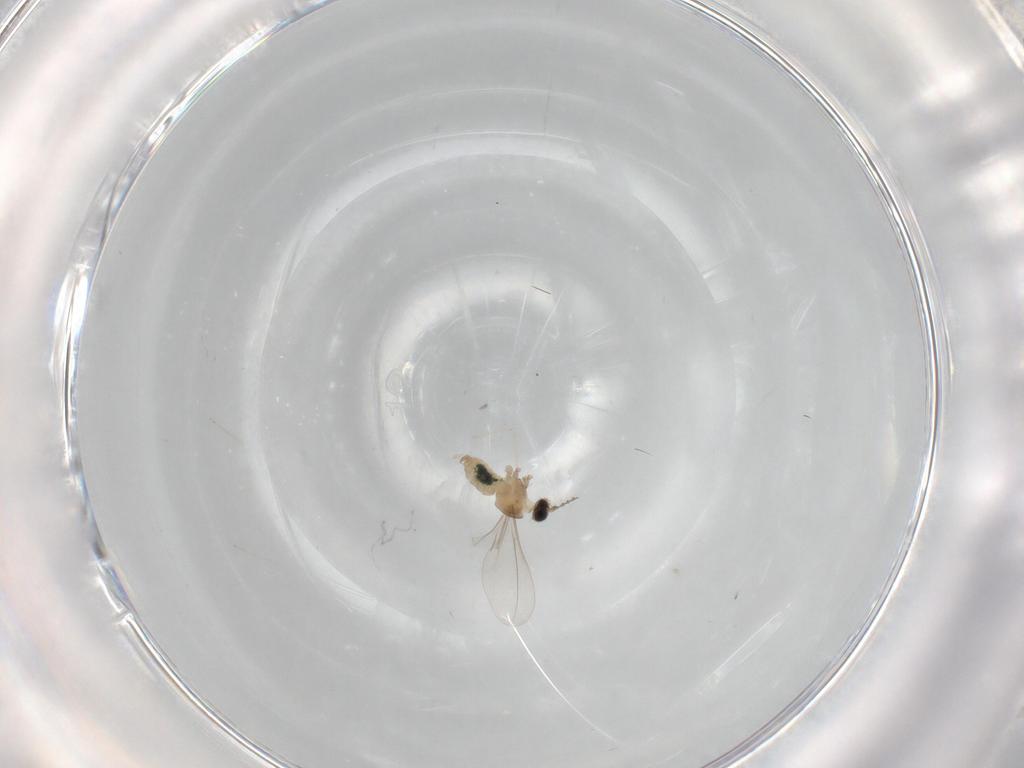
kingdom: Animalia
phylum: Arthropoda
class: Insecta
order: Diptera
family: Cecidomyiidae
